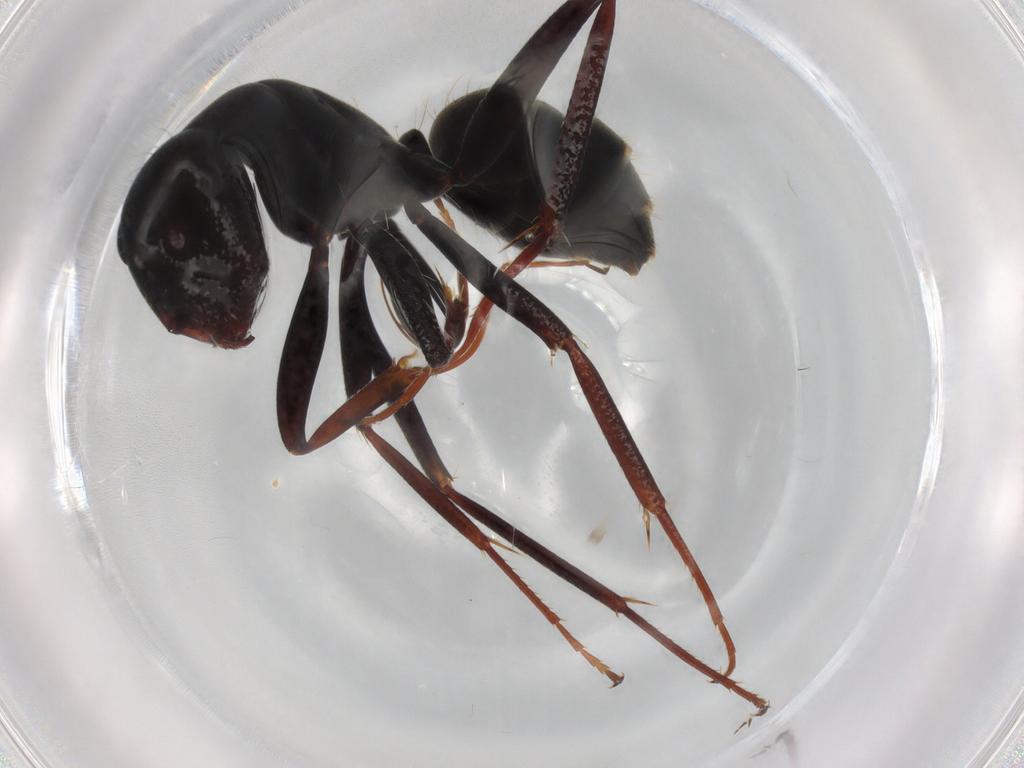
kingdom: Animalia
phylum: Arthropoda
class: Insecta
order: Hymenoptera
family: Formicidae
